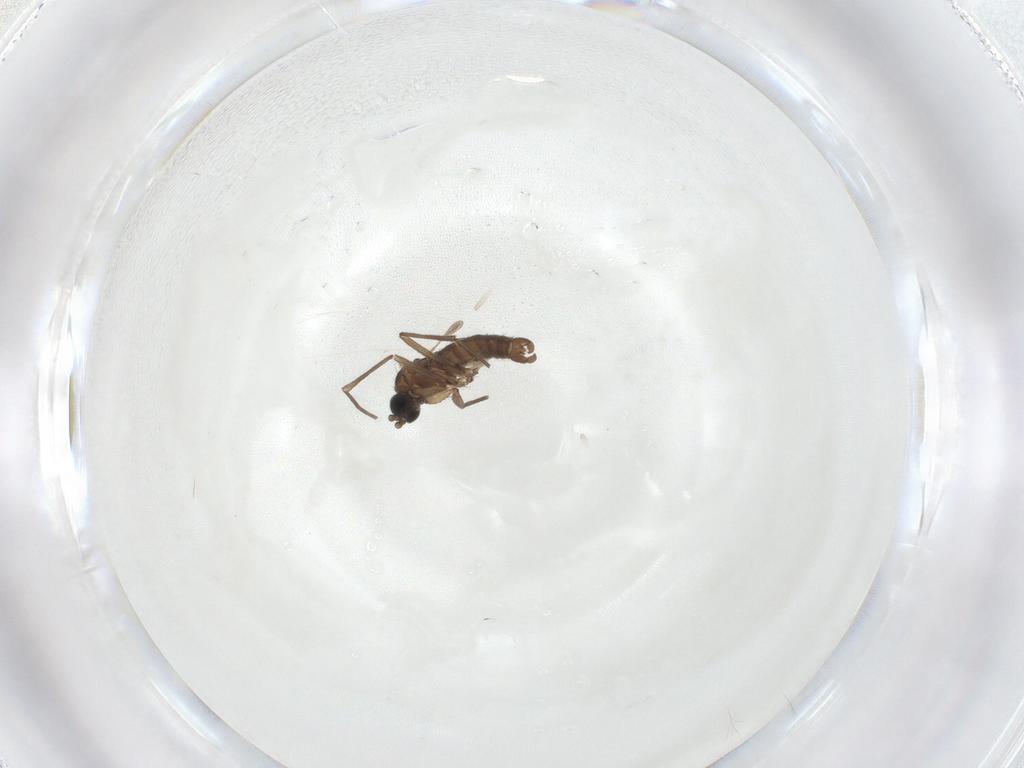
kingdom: Animalia
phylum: Arthropoda
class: Insecta
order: Diptera
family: Sciaridae
